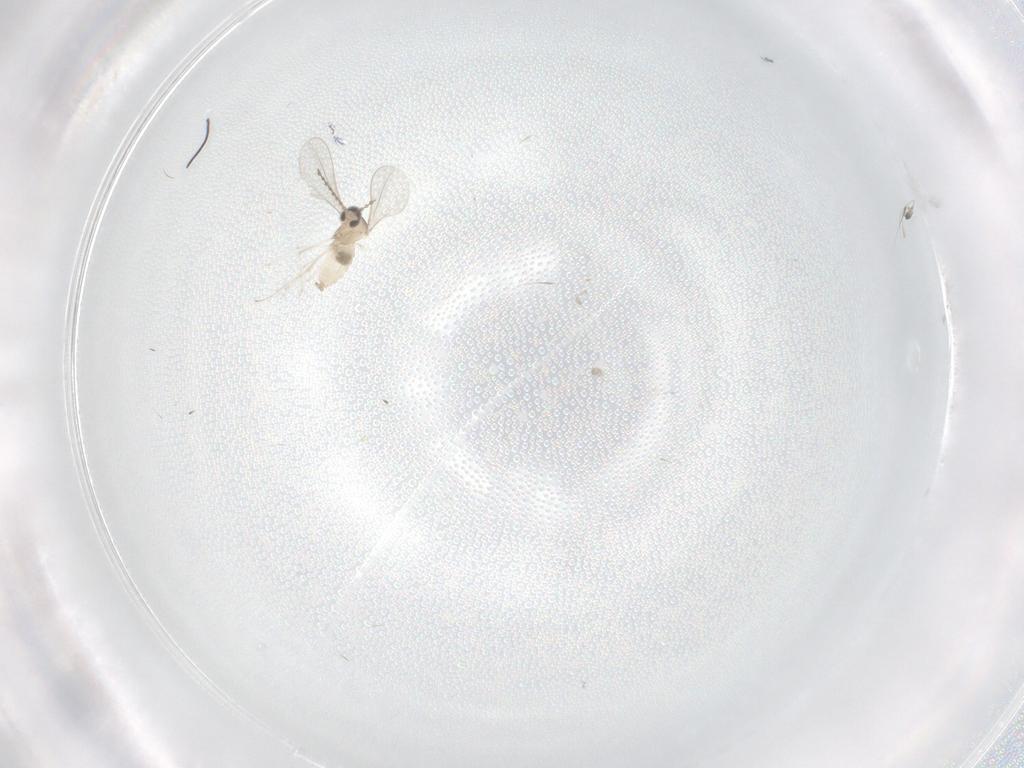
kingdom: Animalia
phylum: Arthropoda
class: Insecta
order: Diptera
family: Cecidomyiidae
